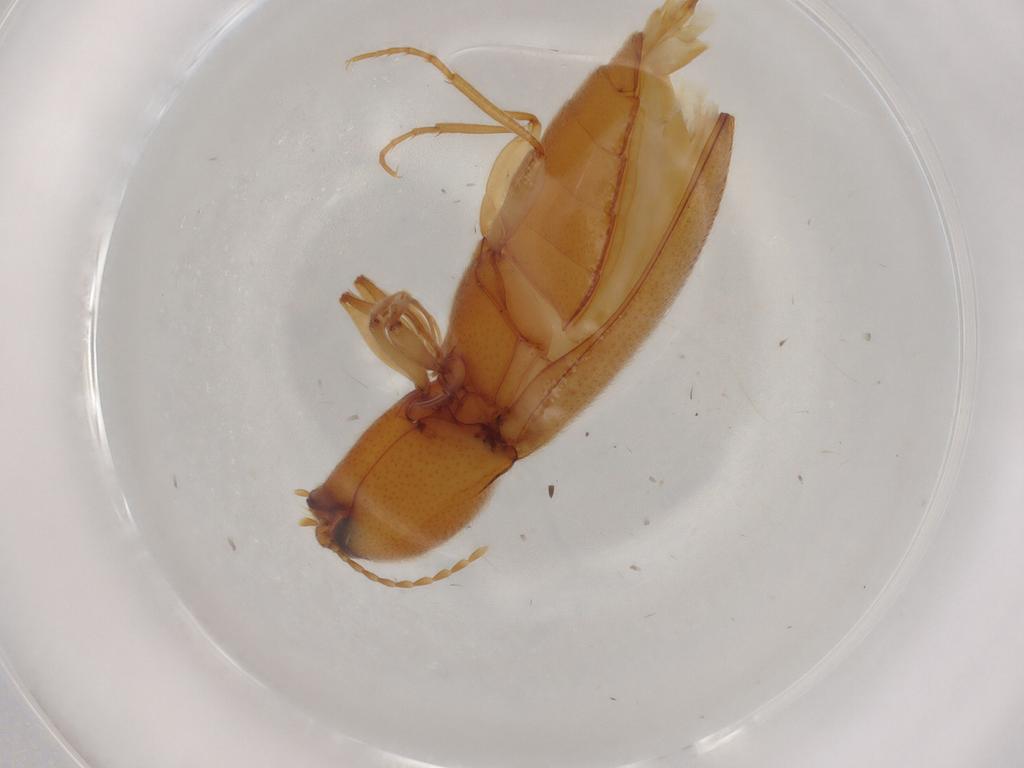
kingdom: Animalia
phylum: Arthropoda
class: Insecta
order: Coleoptera
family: Elateridae
